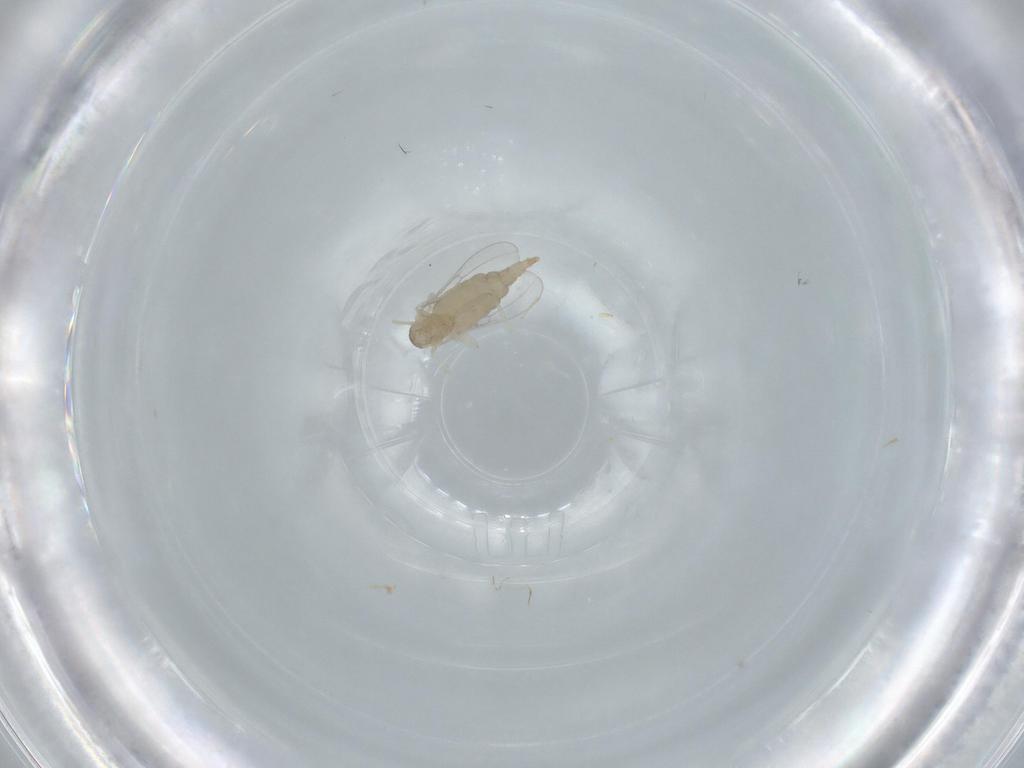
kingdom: Animalia
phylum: Arthropoda
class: Insecta
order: Diptera
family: Cecidomyiidae
